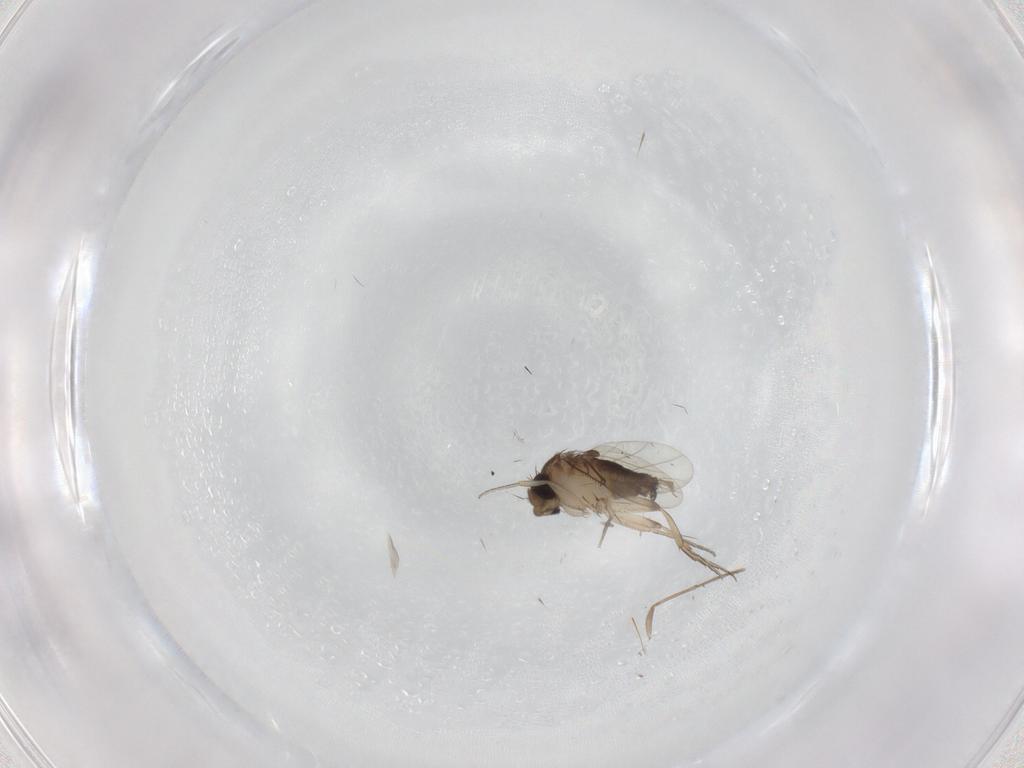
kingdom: Animalia
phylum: Arthropoda
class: Insecta
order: Diptera
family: Cecidomyiidae
